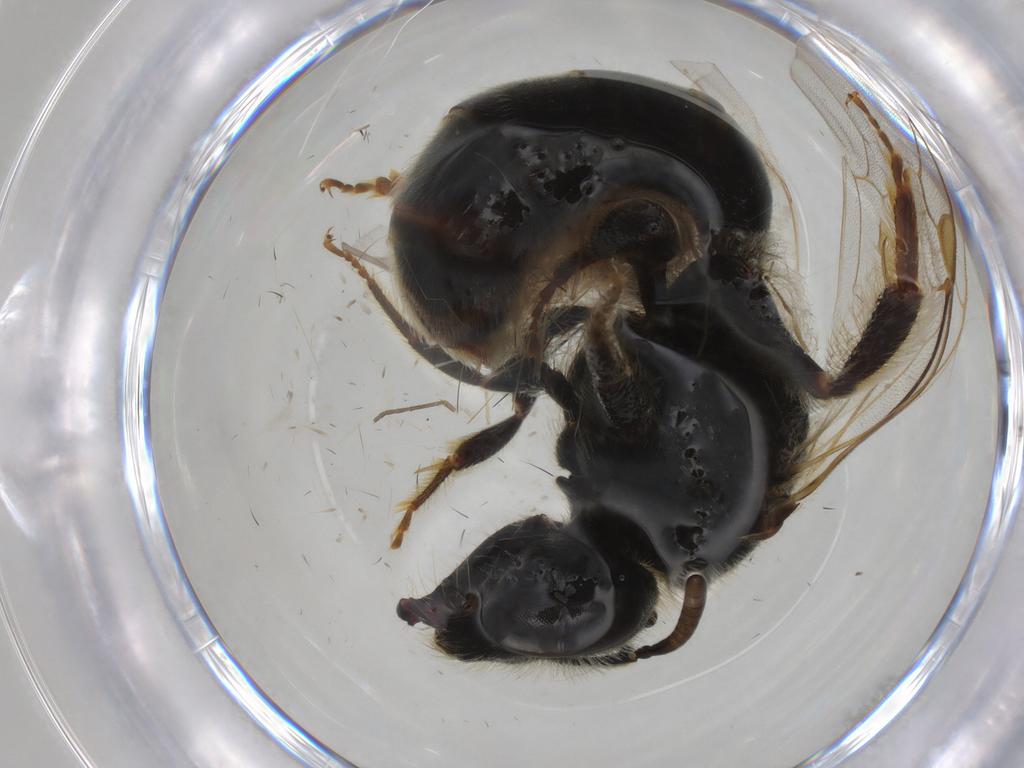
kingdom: Animalia
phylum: Arthropoda
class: Insecta
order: Hymenoptera
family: Halictidae
